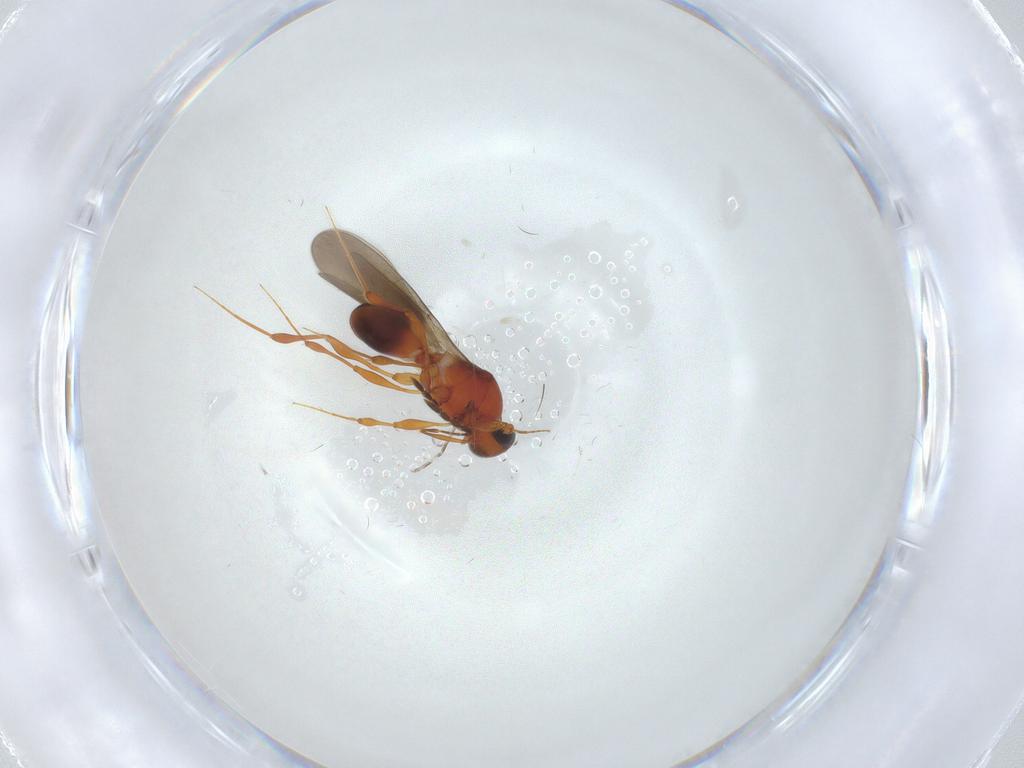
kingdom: Animalia
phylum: Arthropoda
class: Insecta
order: Hymenoptera
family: Platygastridae
